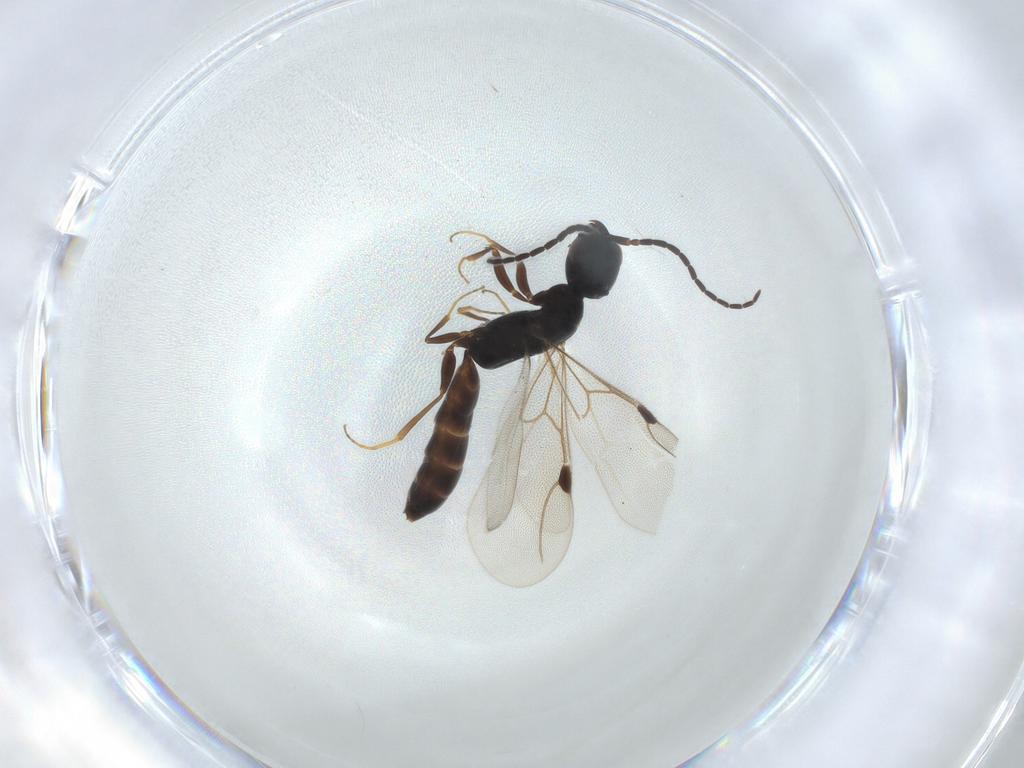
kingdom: Animalia
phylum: Arthropoda
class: Insecta
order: Hymenoptera
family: Bethylidae
